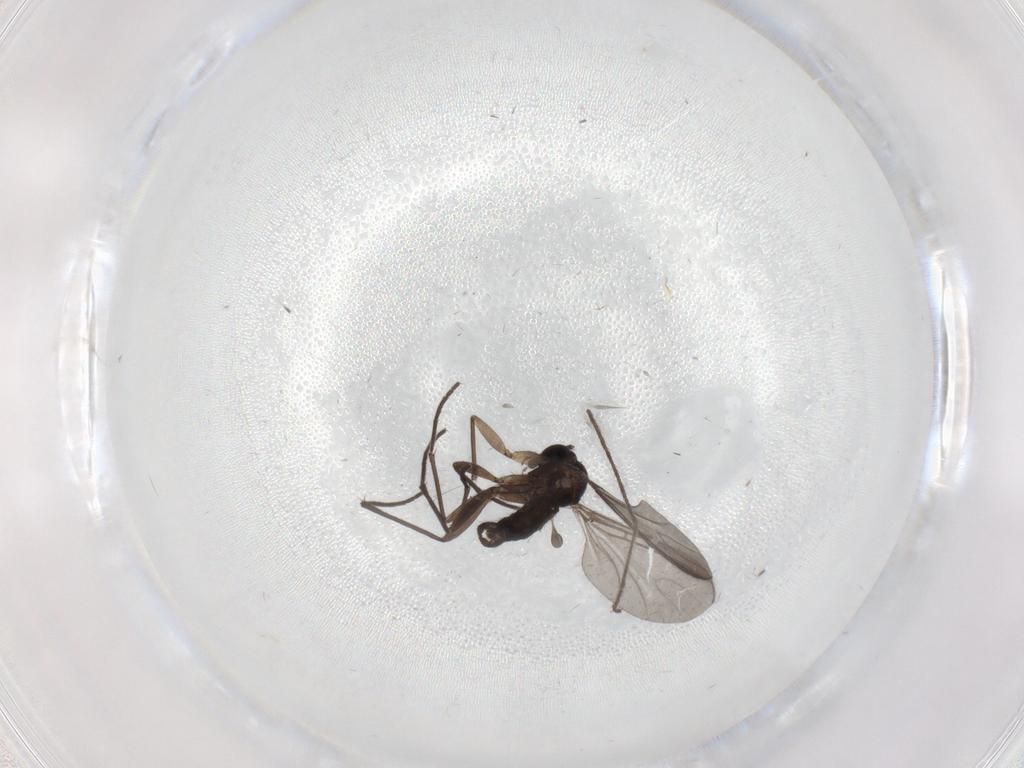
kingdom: Animalia
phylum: Arthropoda
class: Insecta
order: Diptera
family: Sciaridae
